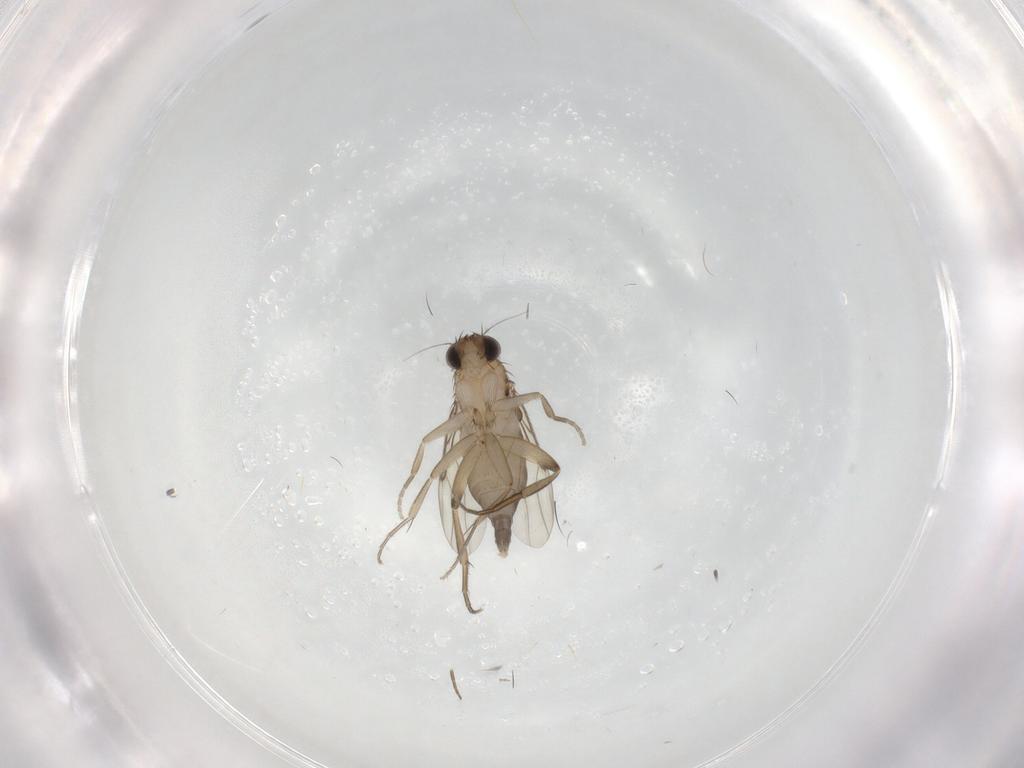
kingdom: Animalia
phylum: Arthropoda
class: Insecta
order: Diptera
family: Phoridae
